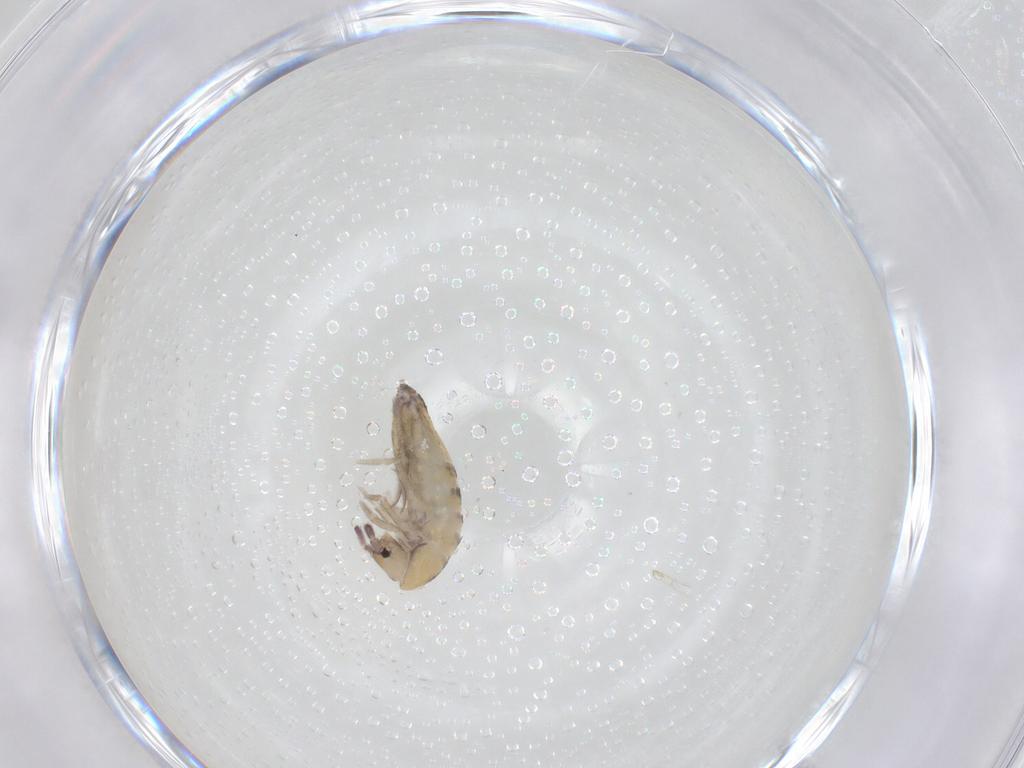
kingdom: Animalia
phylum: Arthropoda
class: Collembola
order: Entomobryomorpha
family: Entomobryidae
